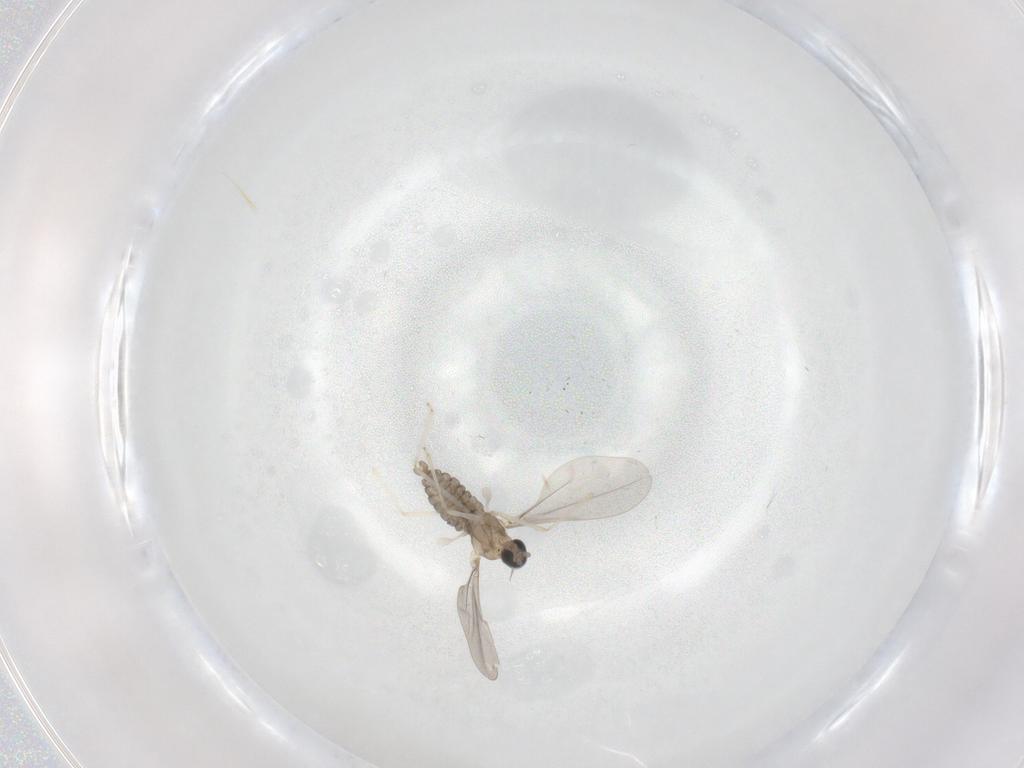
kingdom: Animalia
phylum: Arthropoda
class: Insecta
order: Diptera
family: Cecidomyiidae
